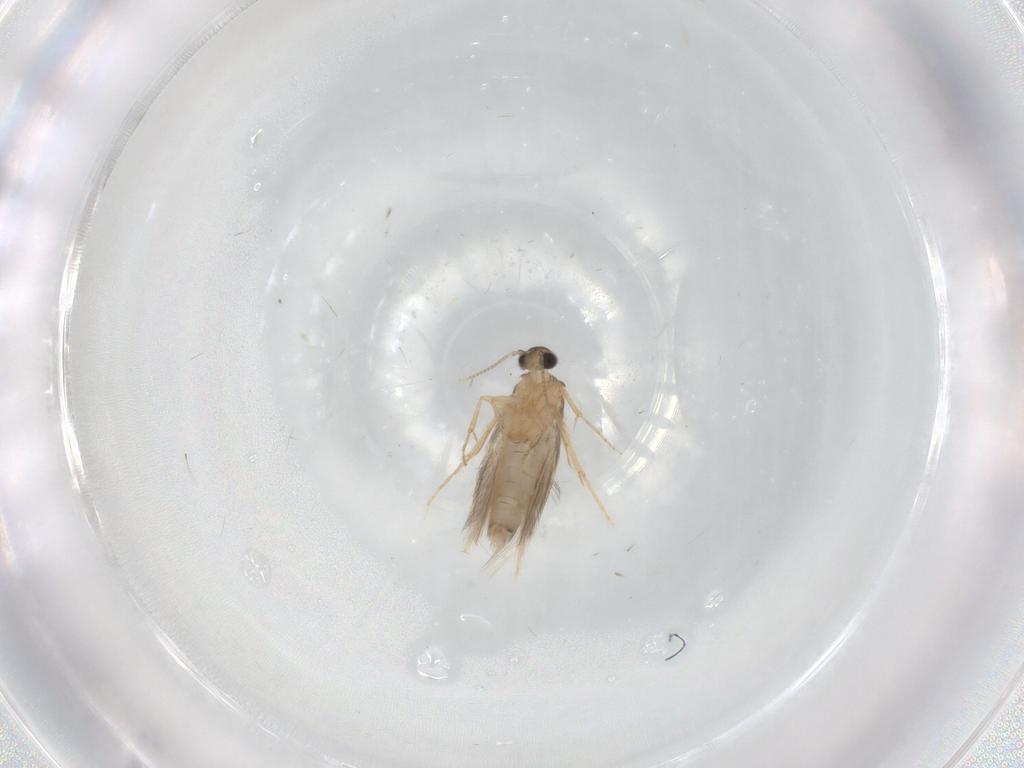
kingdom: Animalia
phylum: Arthropoda
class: Insecta
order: Trichoptera
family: Hydroptilidae
